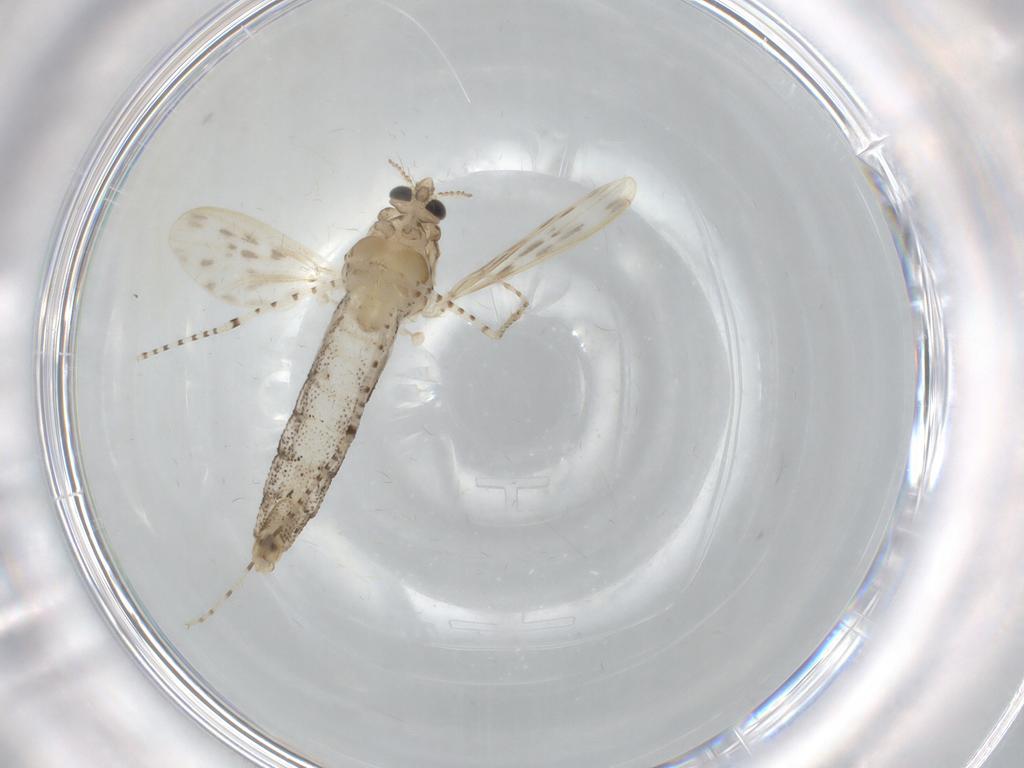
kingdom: Animalia
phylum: Arthropoda
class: Insecta
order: Diptera
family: Chaoboridae
